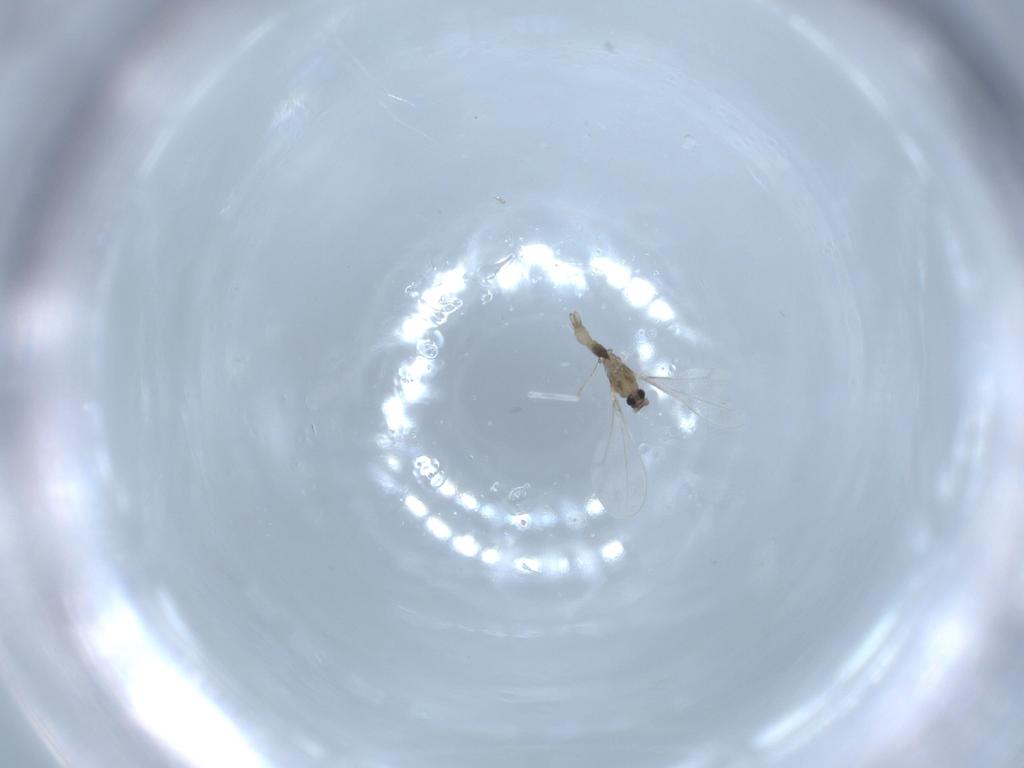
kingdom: Animalia
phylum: Arthropoda
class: Insecta
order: Diptera
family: Cecidomyiidae
